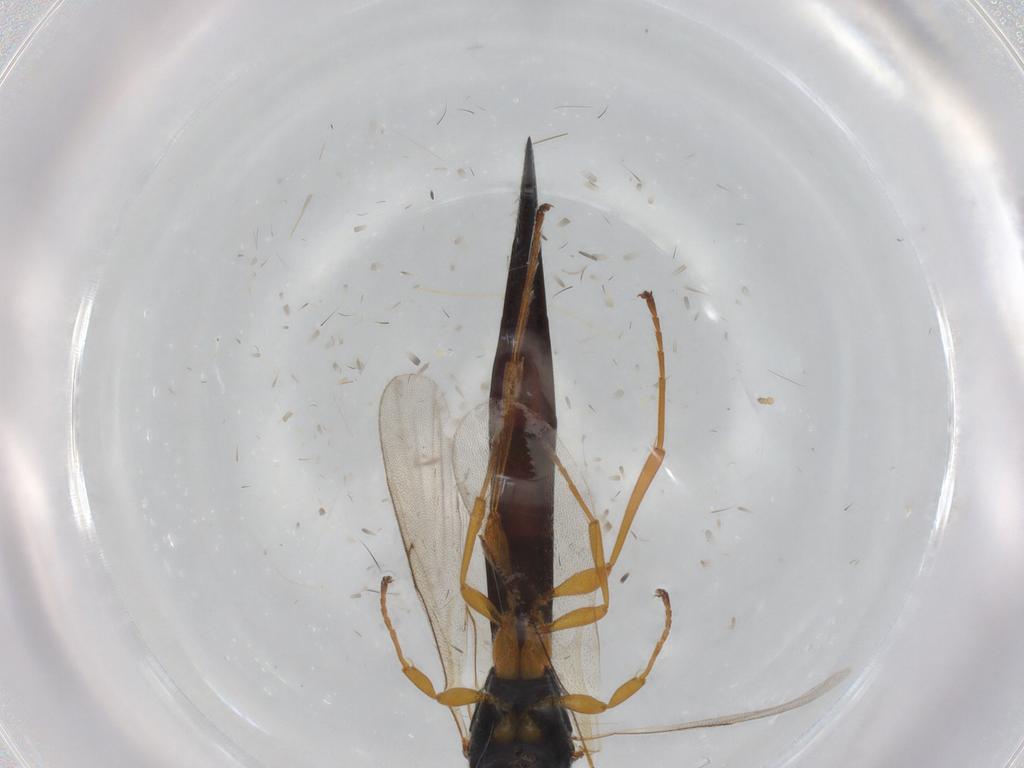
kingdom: Animalia
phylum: Arthropoda
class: Insecta
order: Hymenoptera
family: Scelionidae
